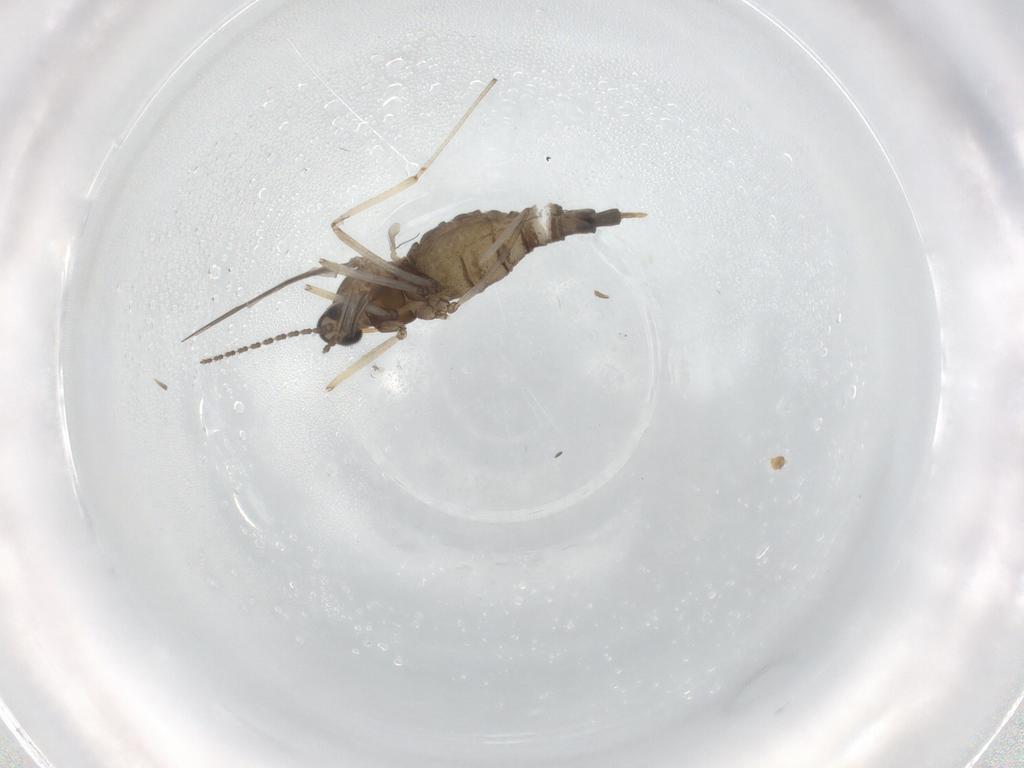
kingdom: Animalia
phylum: Arthropoda
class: Insecta
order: Diptera
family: Cecidomyiidae
